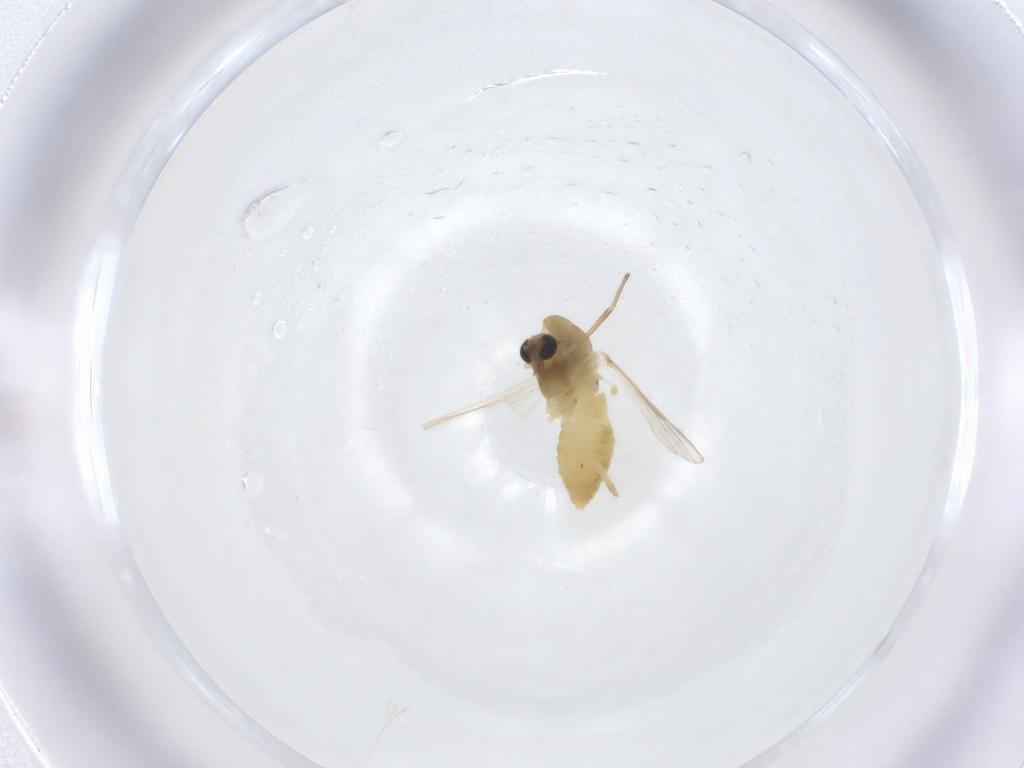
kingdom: Animalia
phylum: Arthropoda
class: Insecta
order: Diptera
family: Chironomidae
